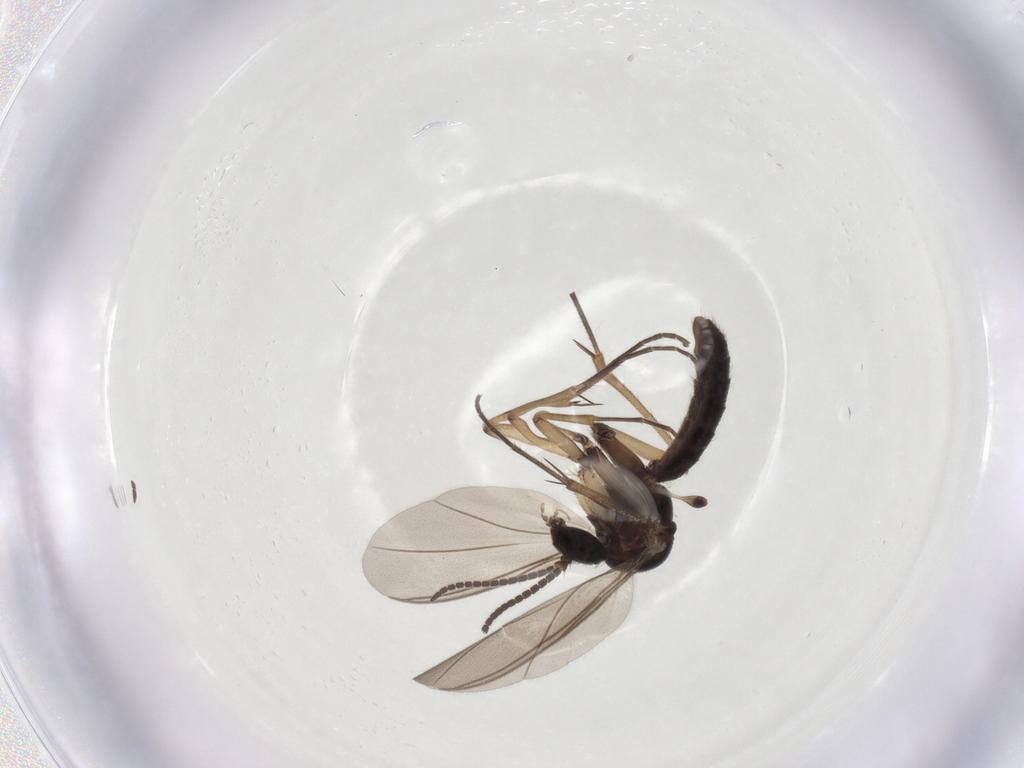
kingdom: Animalia
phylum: Arthropoda
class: Insecta
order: Diptera
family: Mycetophilidae
